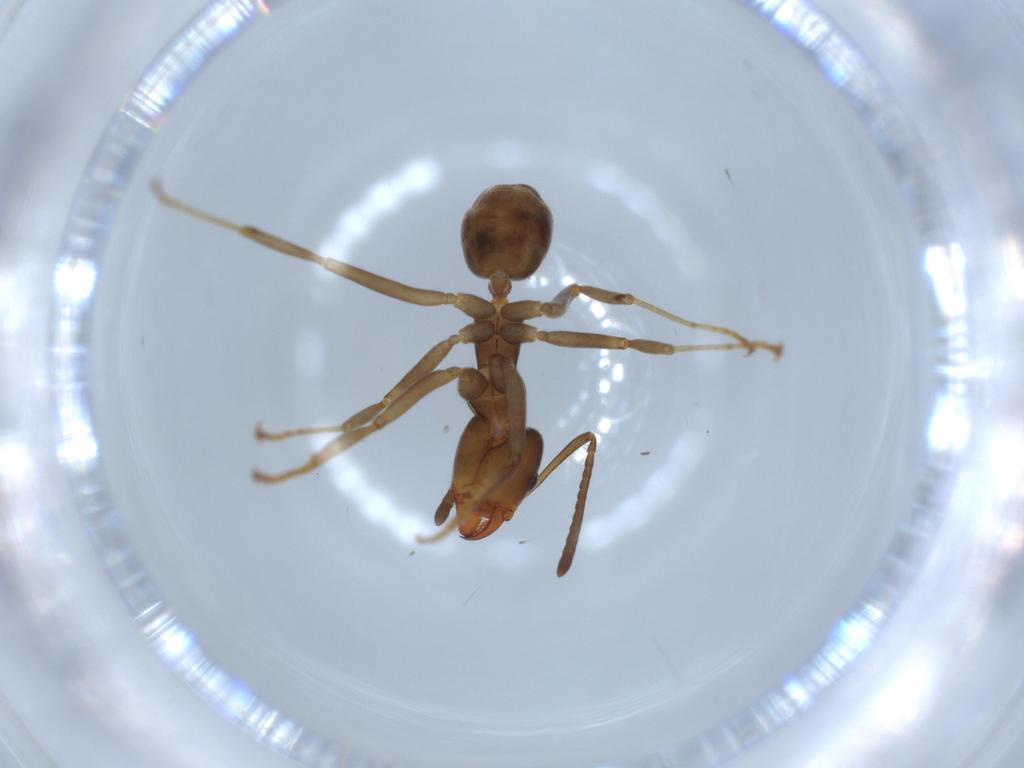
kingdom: Animalia
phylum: Arthropoda
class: Insecta
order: Hymenoptera
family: Formicidae
